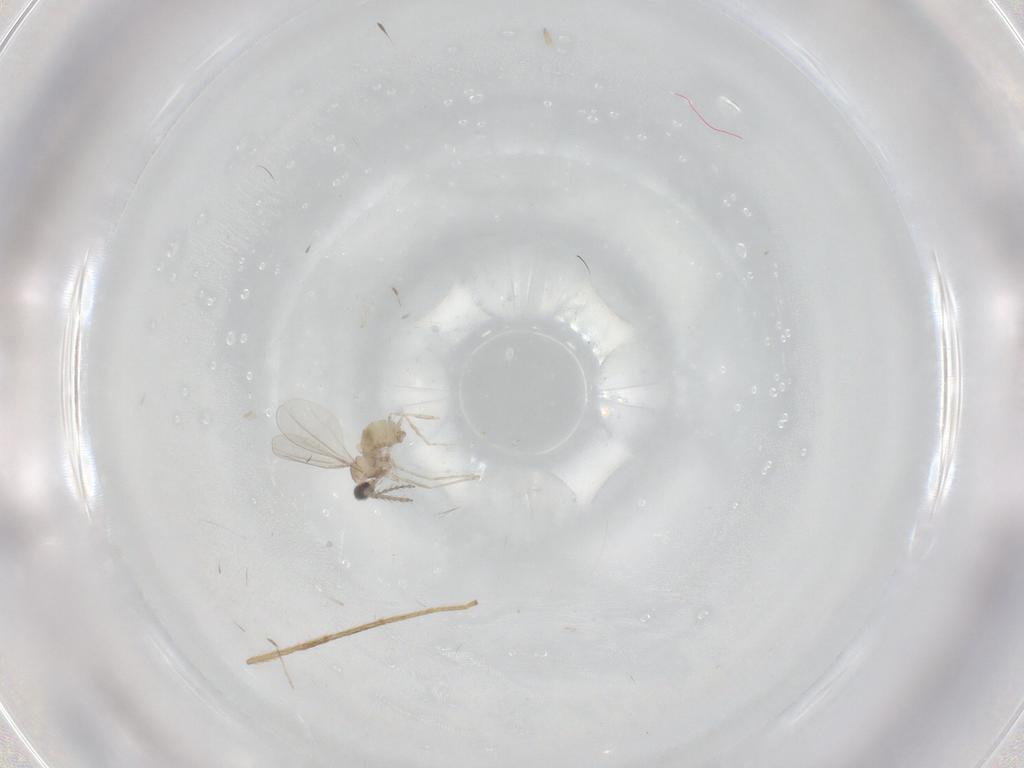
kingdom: Animalia
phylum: Arthropoda
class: Insecta
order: Diptera
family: Cecidomyiidae
